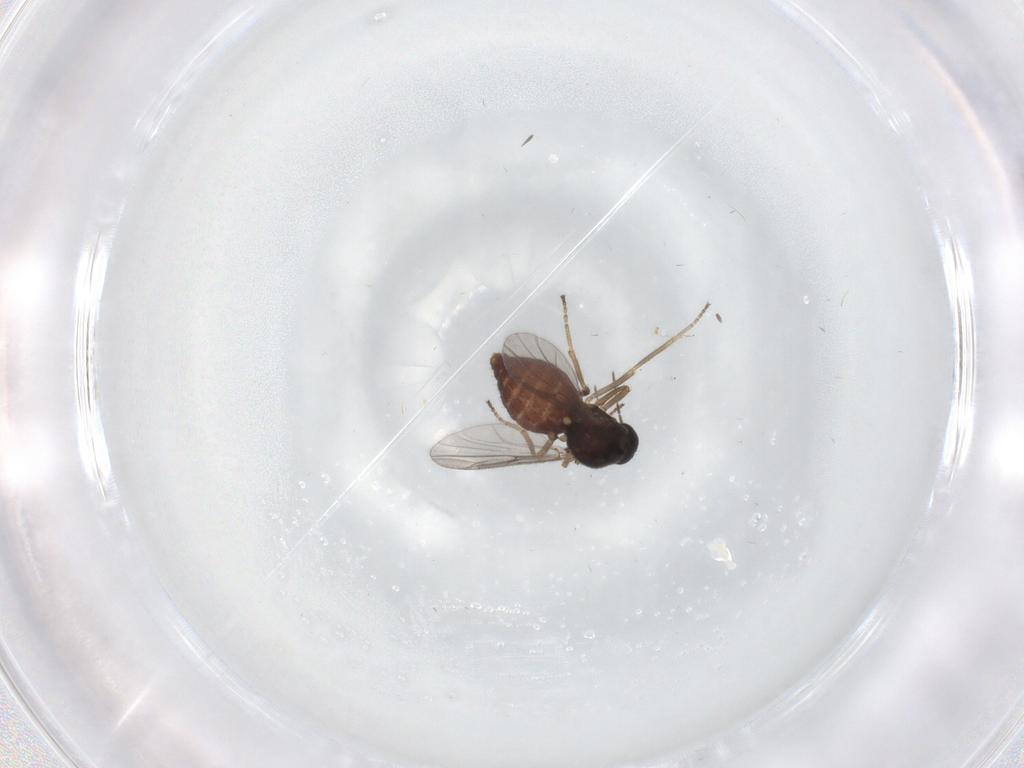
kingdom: Animalia
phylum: Arthropoda
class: Insecta
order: Diptera
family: Ceratopogonidae
